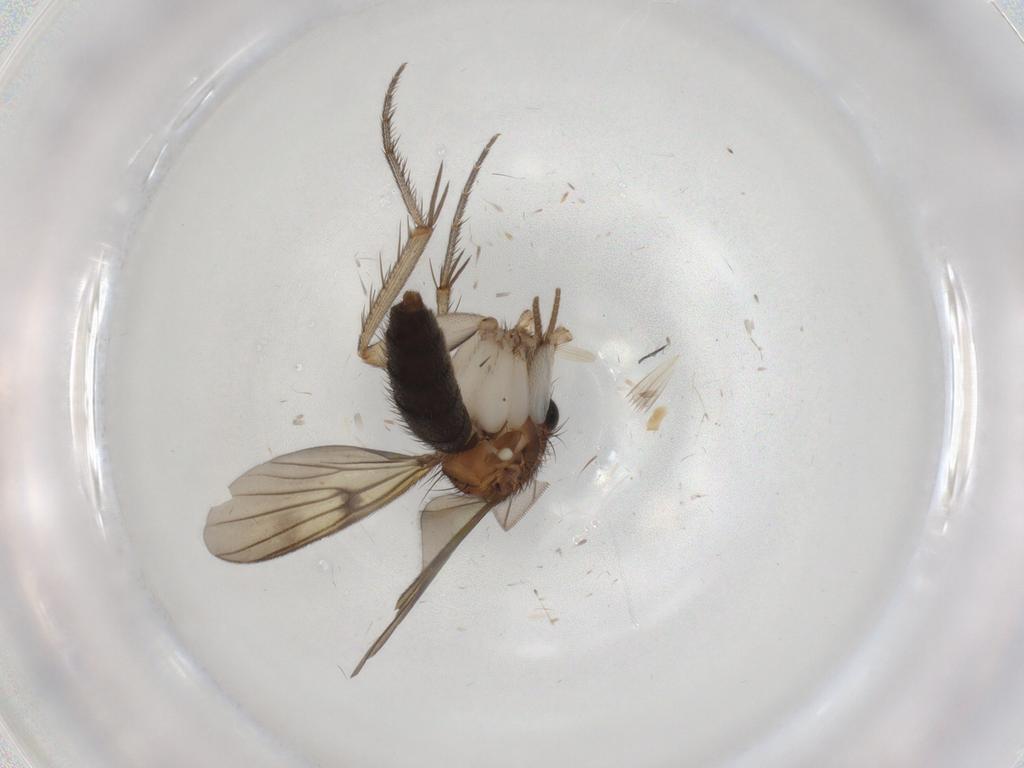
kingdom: Animalia
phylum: Arthropoda
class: Insecta
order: Diptera
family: Mycetophilidae
